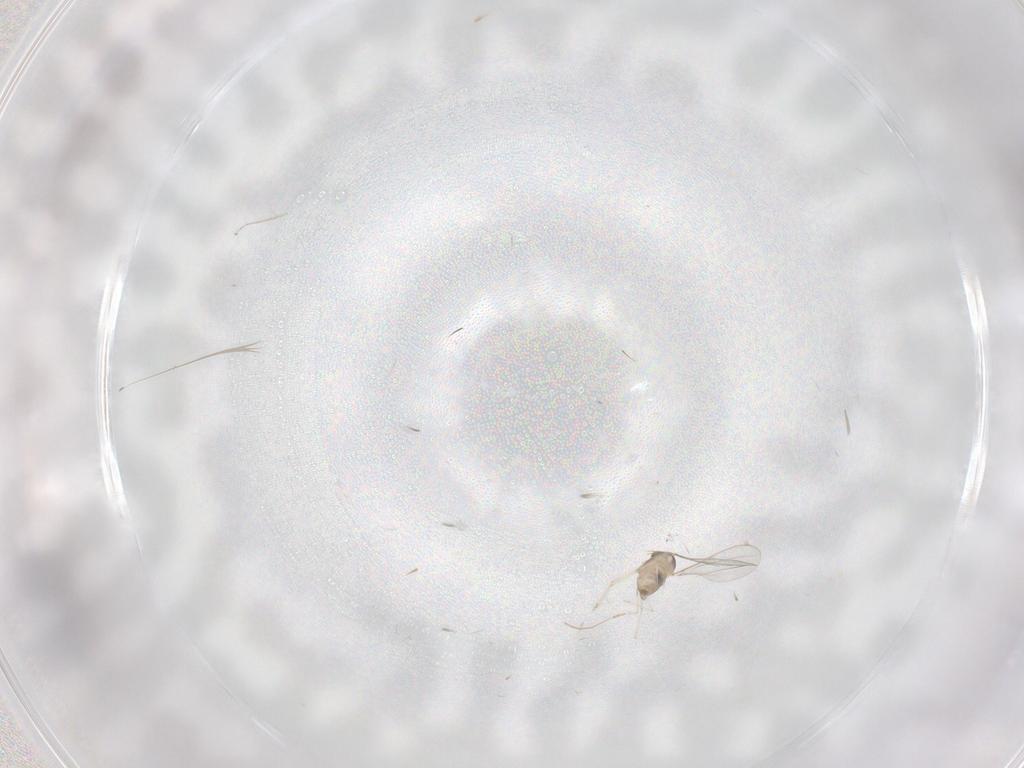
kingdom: Animalia
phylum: Arthropoda
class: Insecta
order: Diptera
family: Cecidomyiidae
